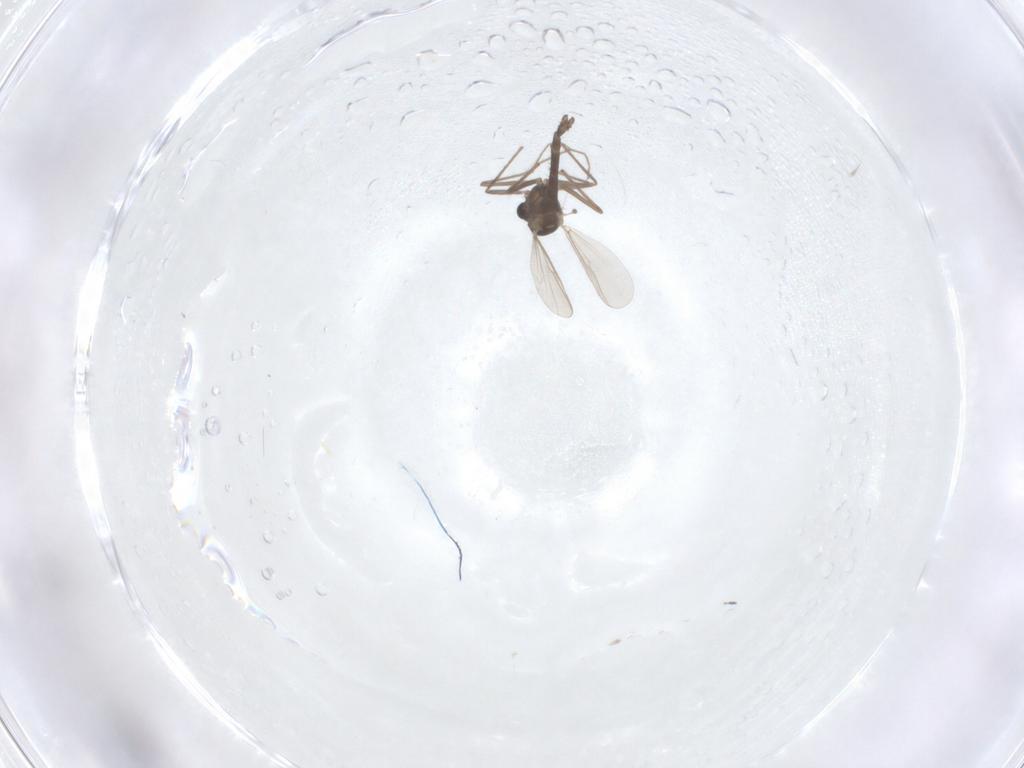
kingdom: Animalia
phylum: Arthropoda
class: Insecta
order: Diptera
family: Chironomidae
